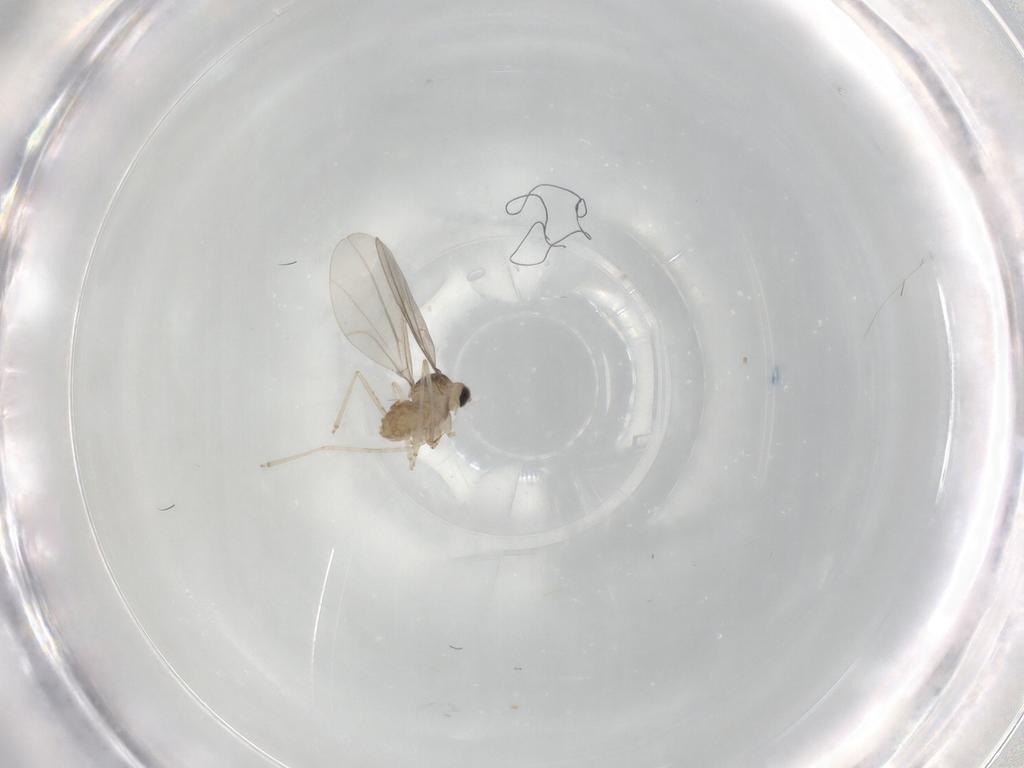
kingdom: Animalia
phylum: Arthropoda
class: Insecta
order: Diptera
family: Cecidomyiidae
